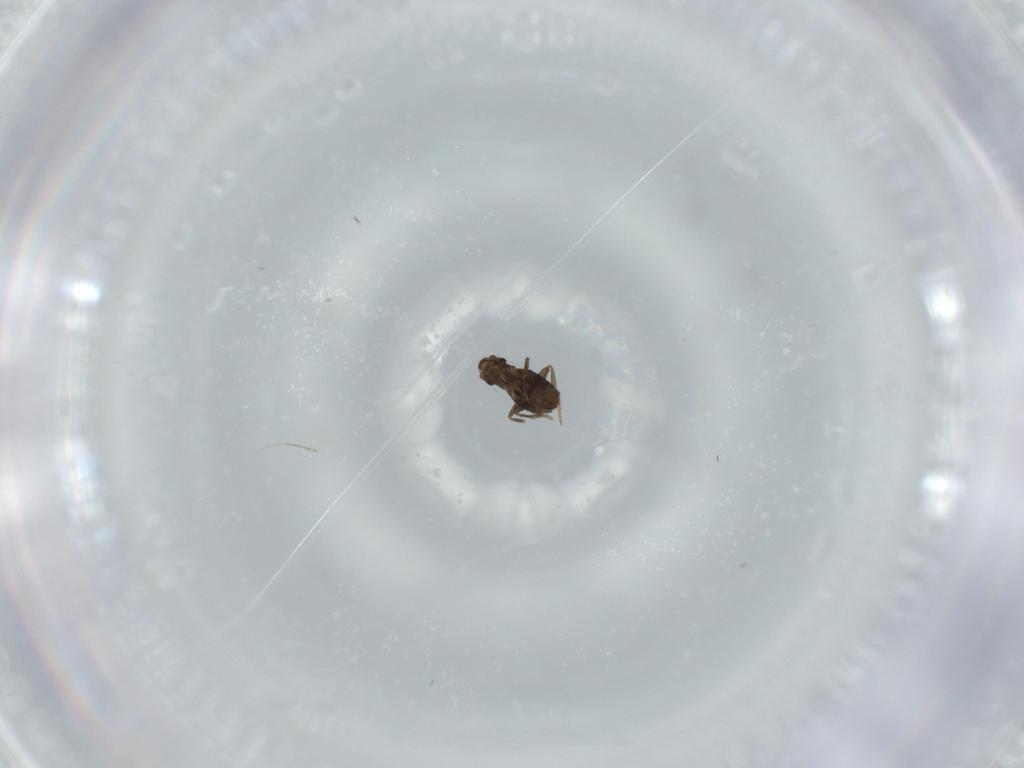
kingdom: Animalia
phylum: Arthropoda
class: Insecta
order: Diptera
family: Phoridae
